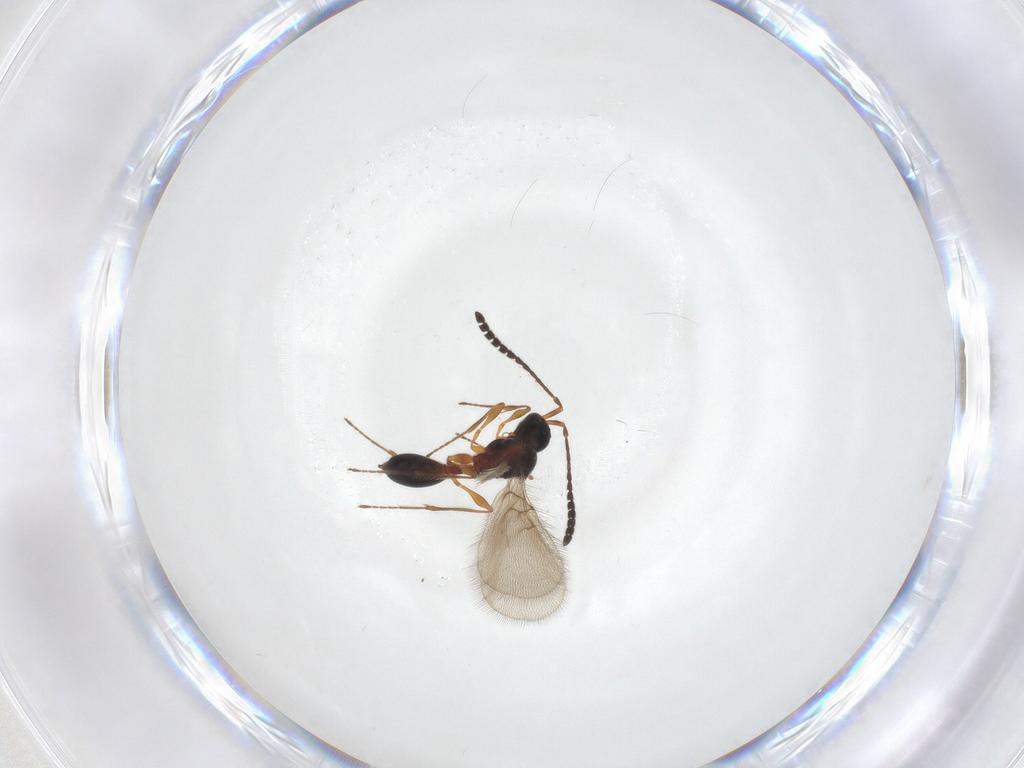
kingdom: Animalia
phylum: Arthropoda
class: Insecta
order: Hymenoptera
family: Diapriidae
